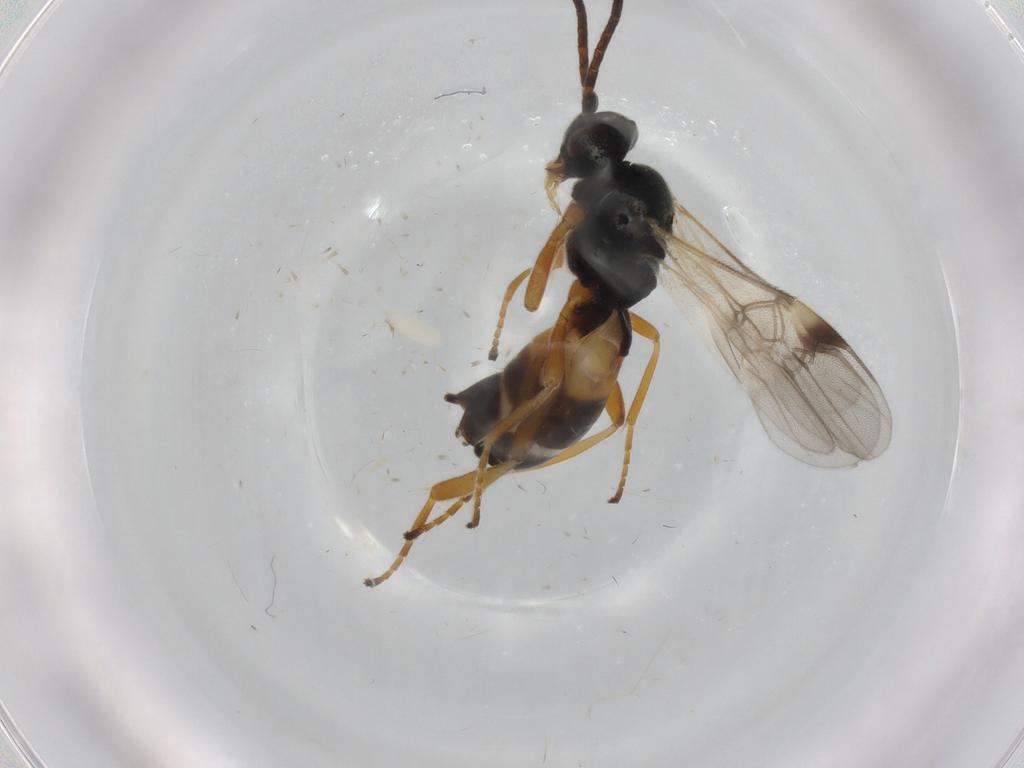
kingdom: Animalia
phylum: Arthropoda
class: Insecta
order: Hymenoptera
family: Braconidae
